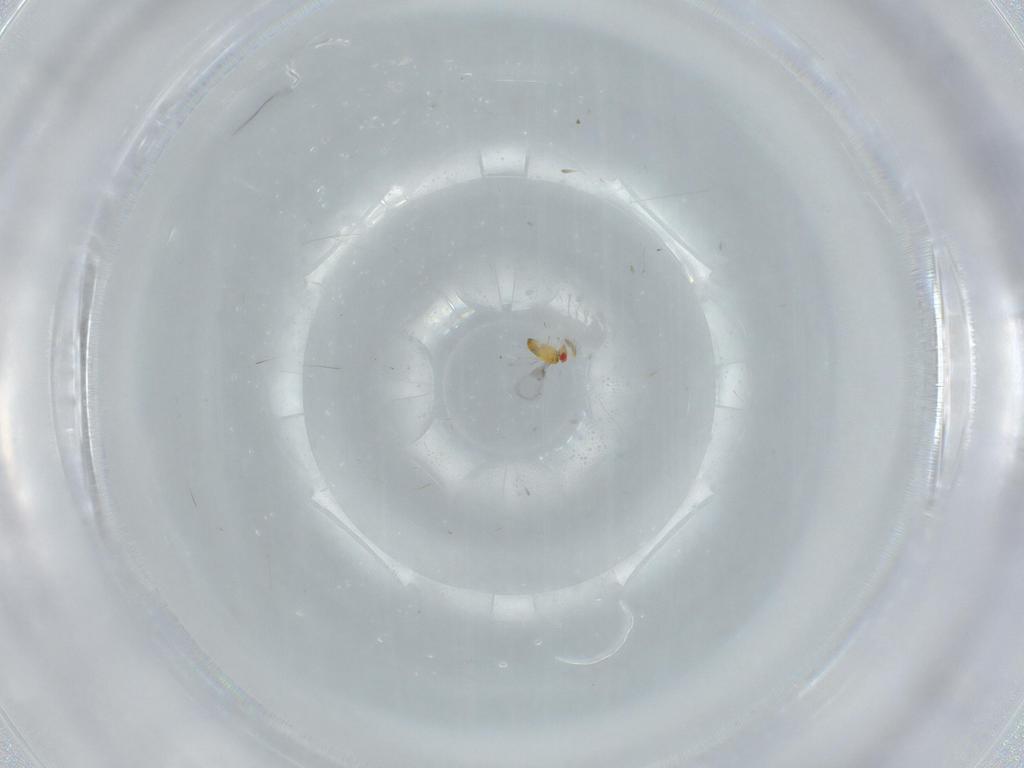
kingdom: Animalia
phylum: Arthropoda
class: Insecta
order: Hymenoptera
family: Trichogrammatidae
